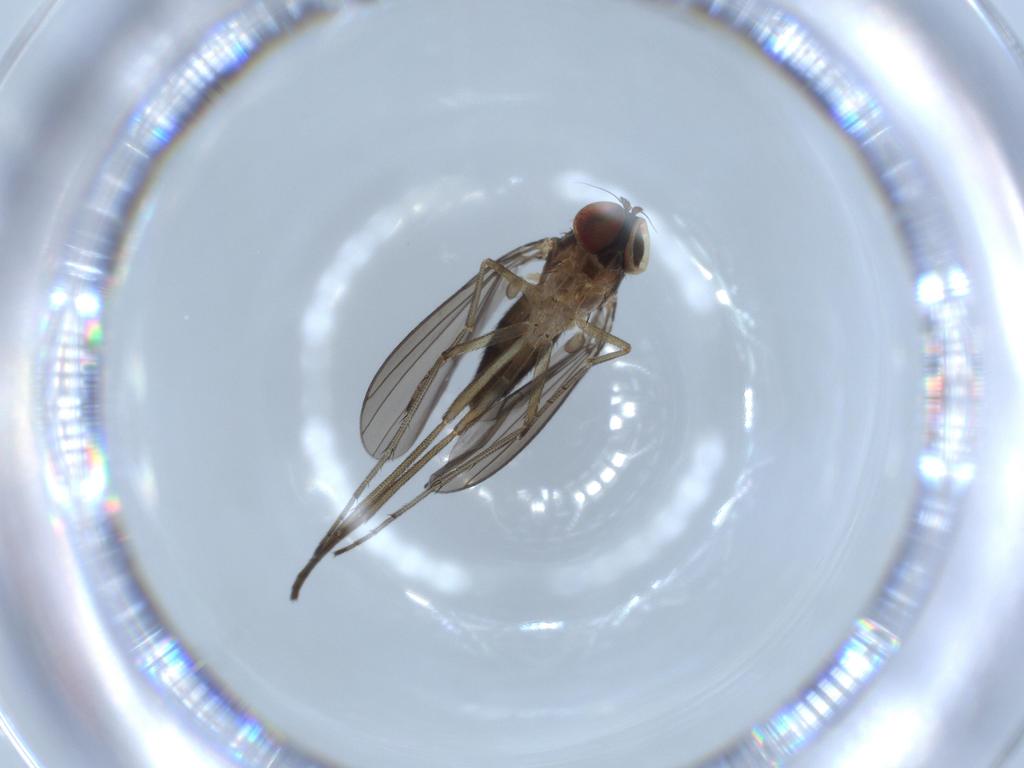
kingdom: Animalia
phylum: Arthropoda
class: Insecta
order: Diptera
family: Dolichopodidae
